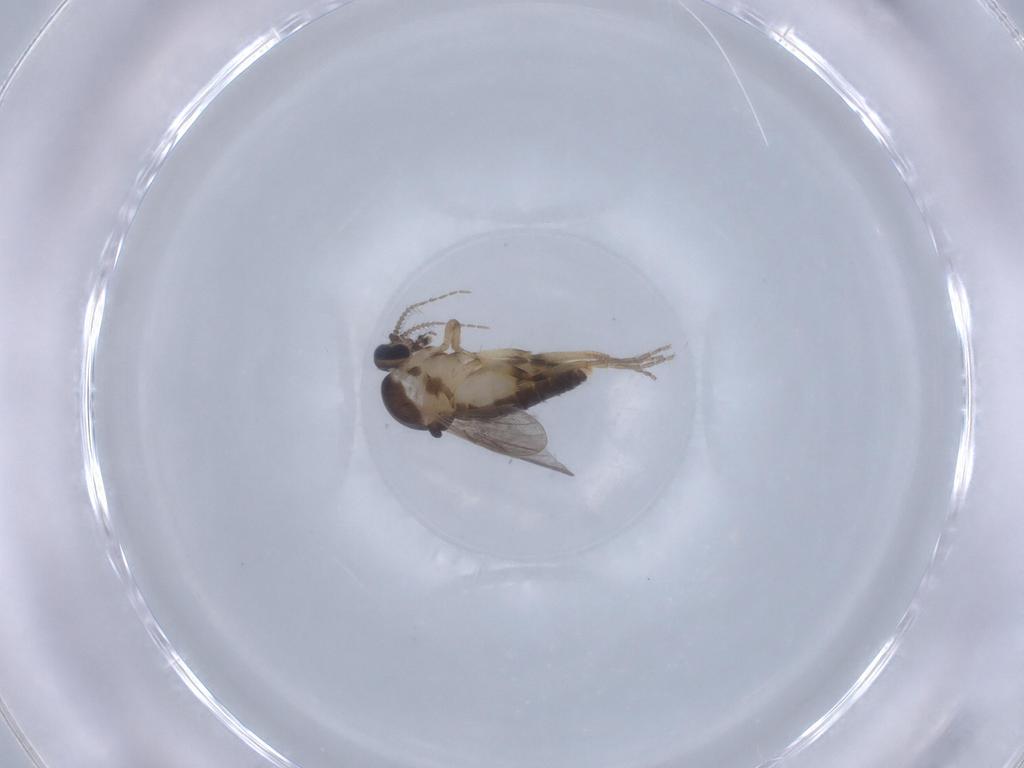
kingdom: Animalia
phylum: Arthropoda
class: Insecta
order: Diptera
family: Ceratopogonidae
